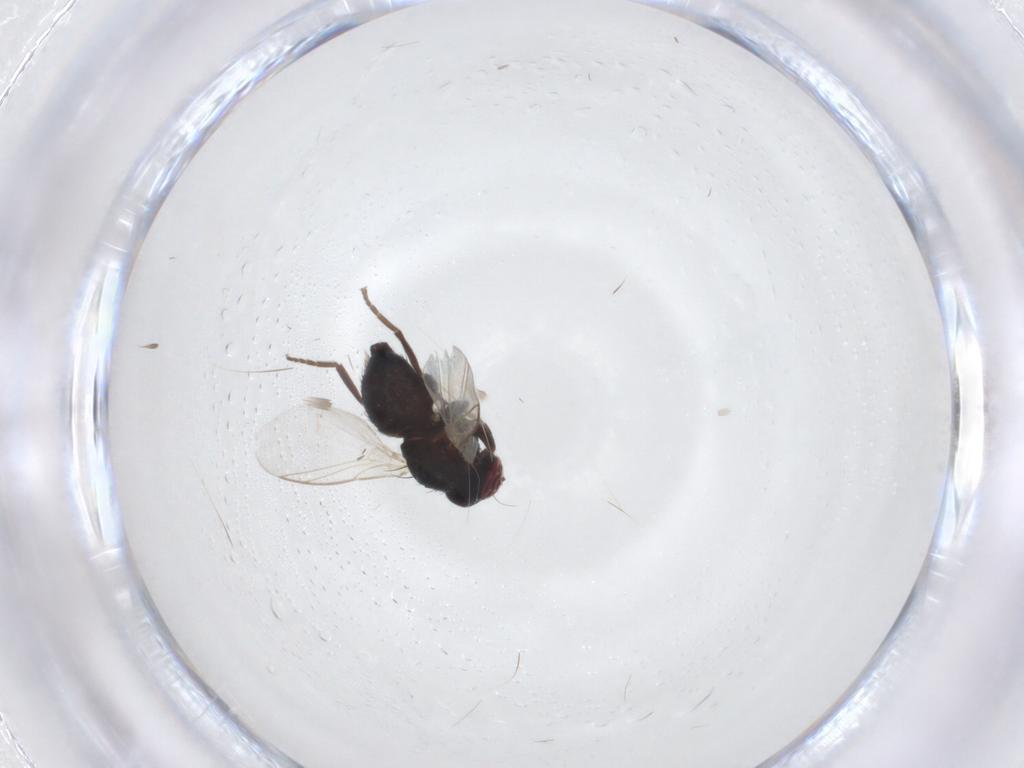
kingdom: Animalia
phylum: Arthropoda
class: Insecta
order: Diptera
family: Agromyzidae
